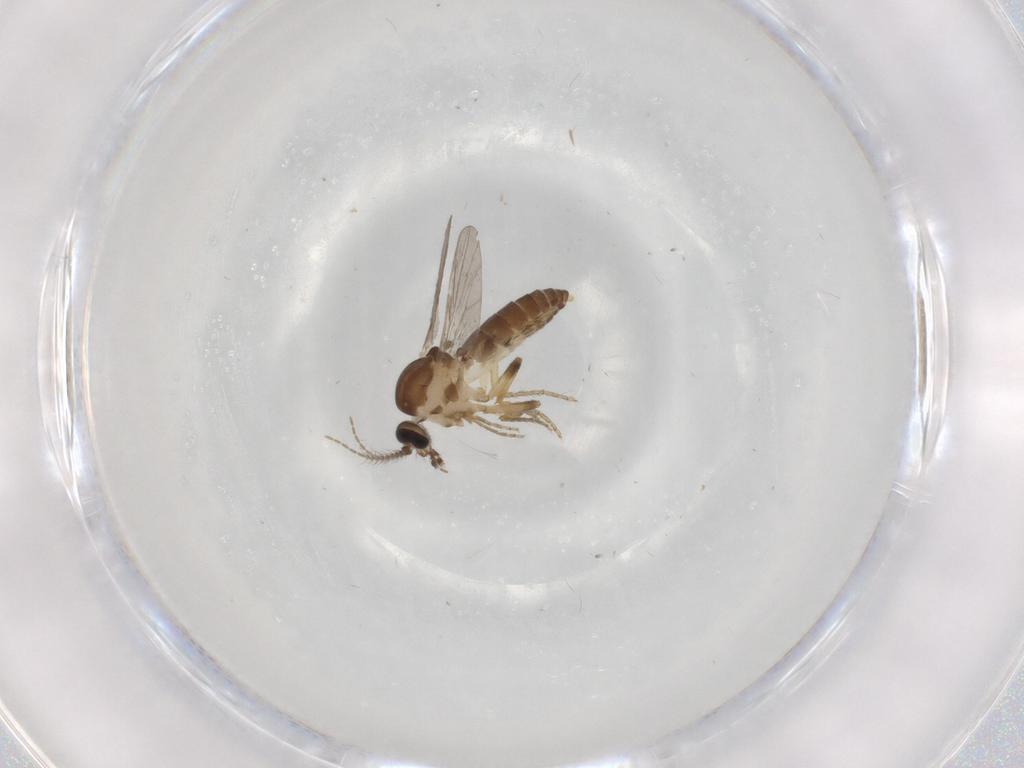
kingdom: Animalia
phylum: Arthropoda
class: Insecta
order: Diptera
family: Ceratopogonidae
